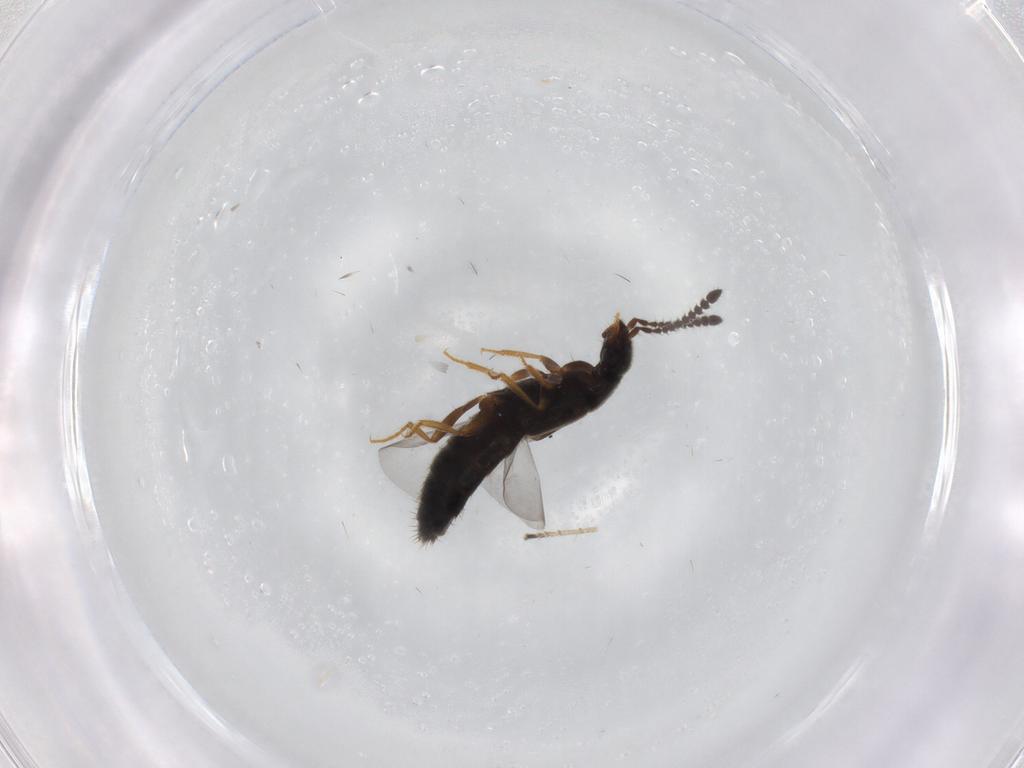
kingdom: Animalia
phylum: Arthropoda
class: Insecta
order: Coleoptera
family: Staphylinidae
